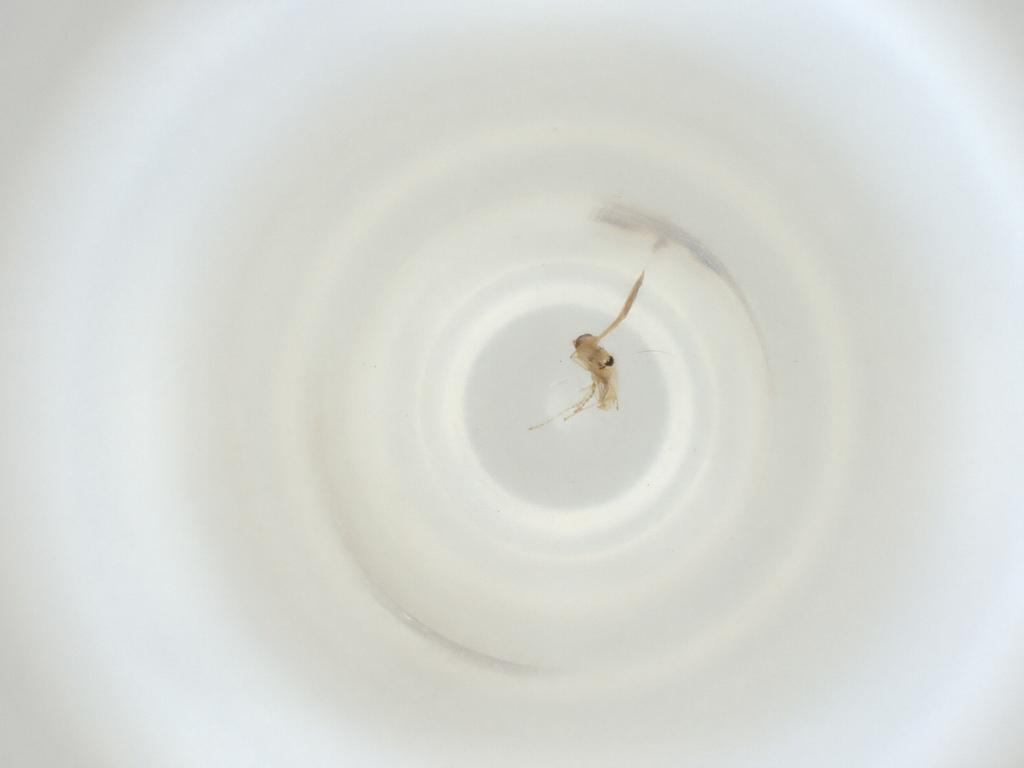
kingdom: Animalia
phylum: Arthropoda
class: Insecta
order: Diptera
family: Cecidomyiidae
